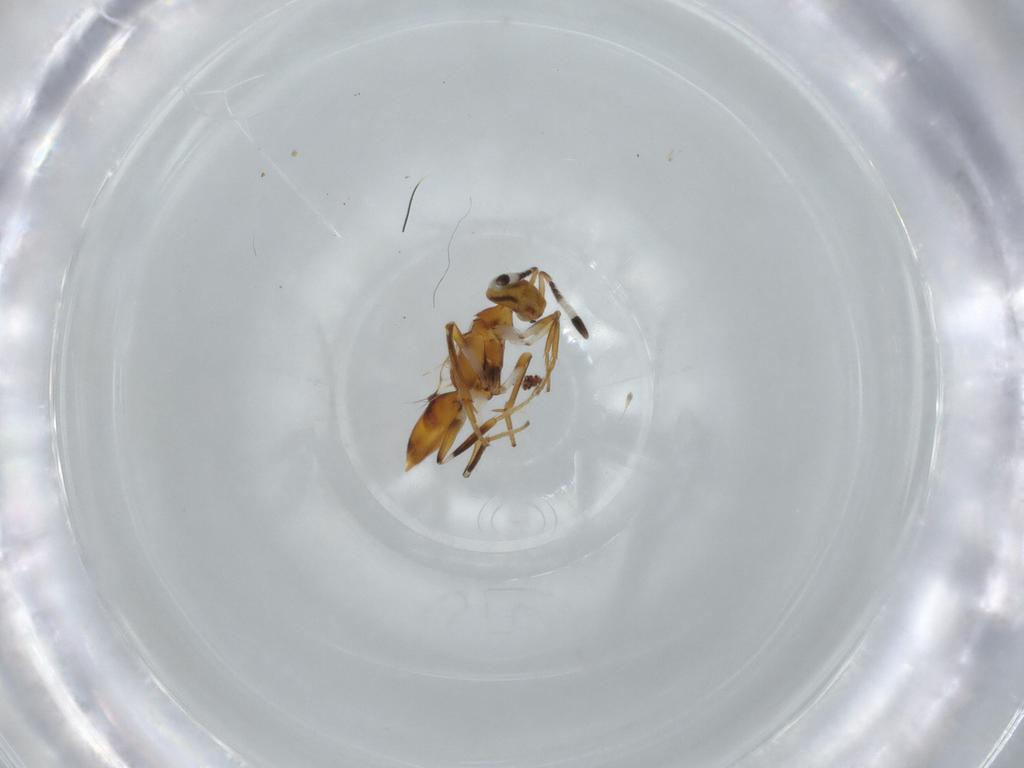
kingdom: Animalia
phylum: Arthropoda
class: Insecta
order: Hymenoptera
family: Encyrtidae
